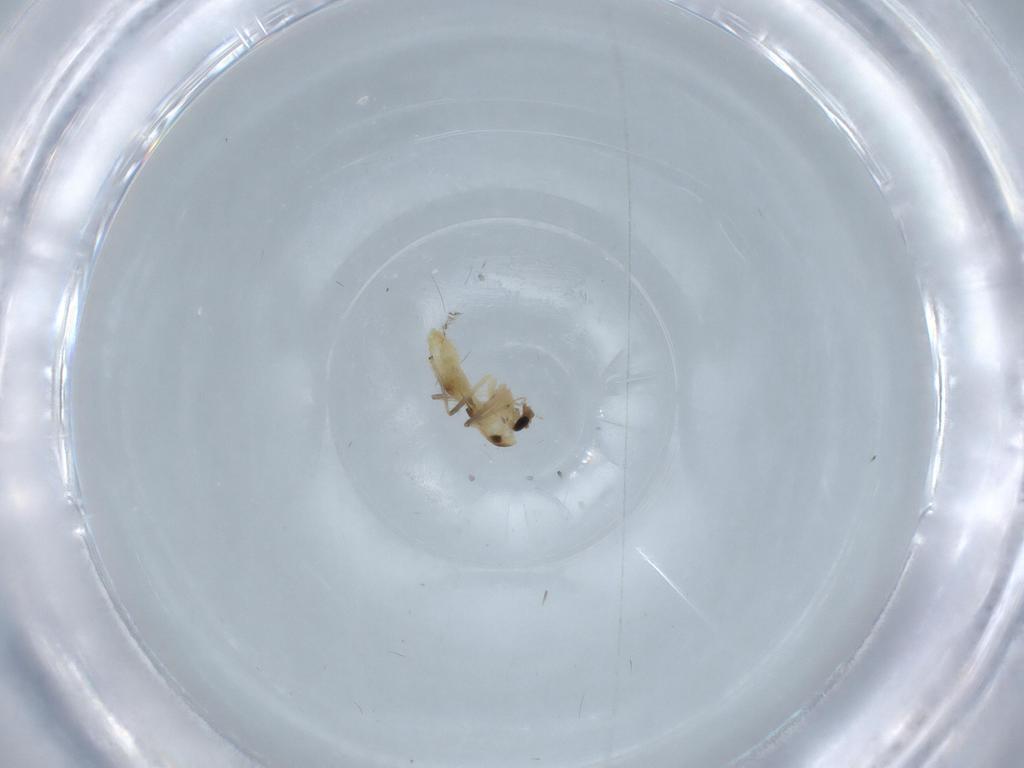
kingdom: Animalia
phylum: Arthropoda
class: Insecta
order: Diptera
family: Chironomidae
